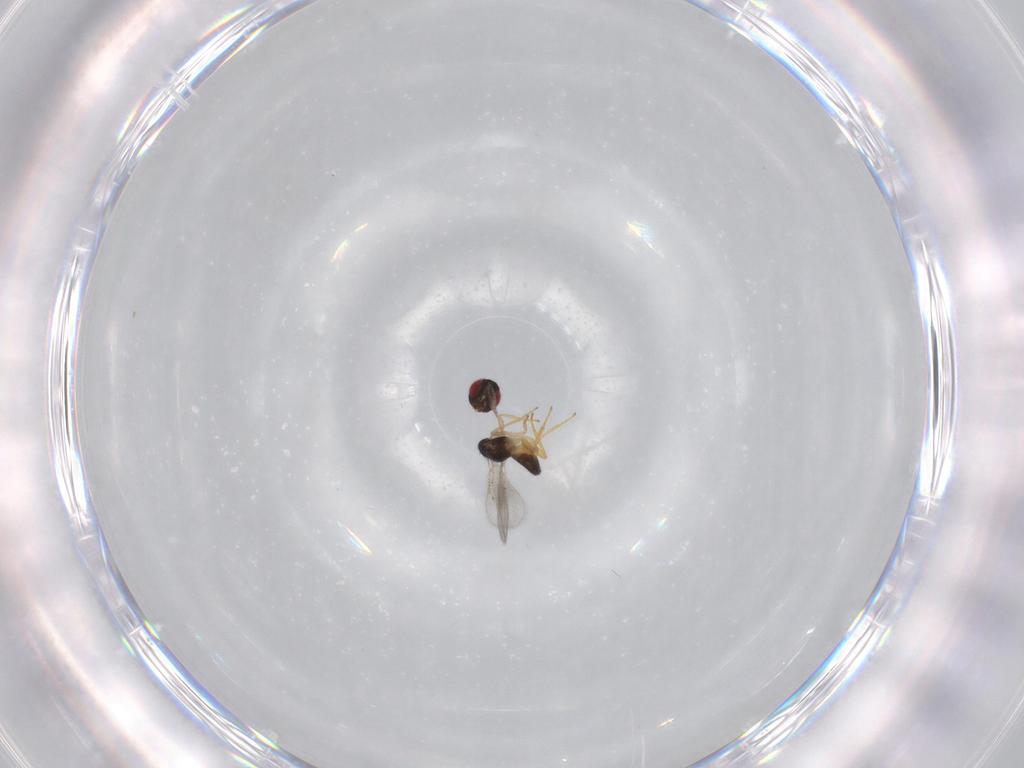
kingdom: Animalia
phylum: Arthropoda
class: Insecta
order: Hymenoptera
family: Eulophidae
